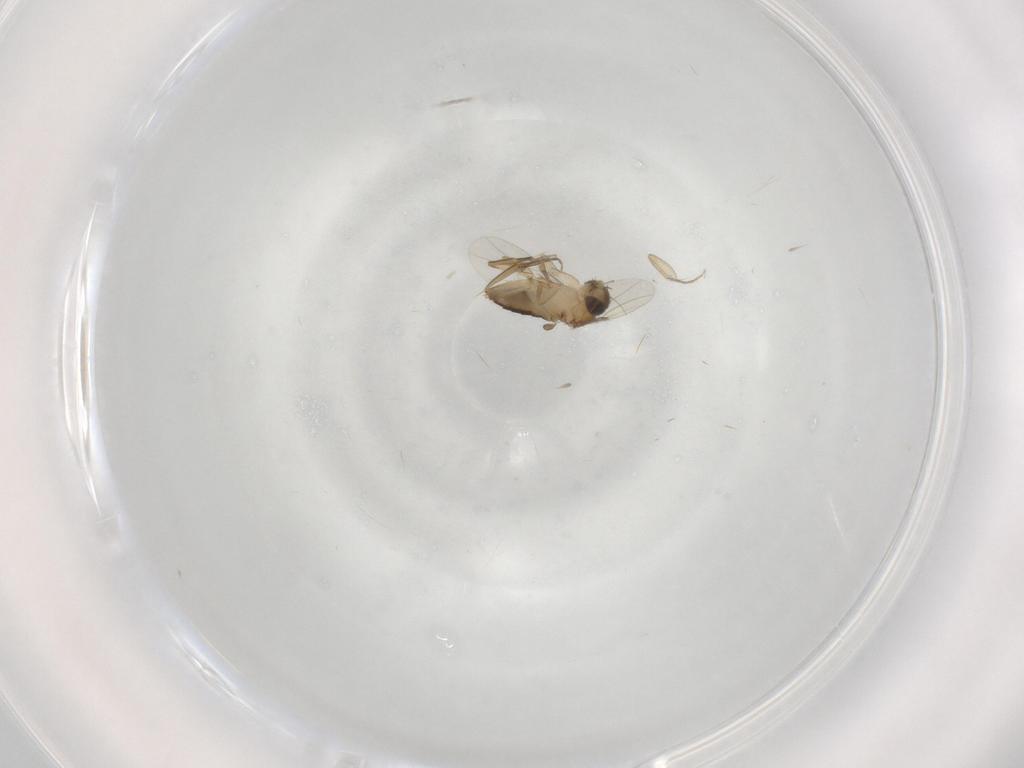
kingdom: Animalia
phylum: Arthropoda
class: Insecta
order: Diptera
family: Phoridae
